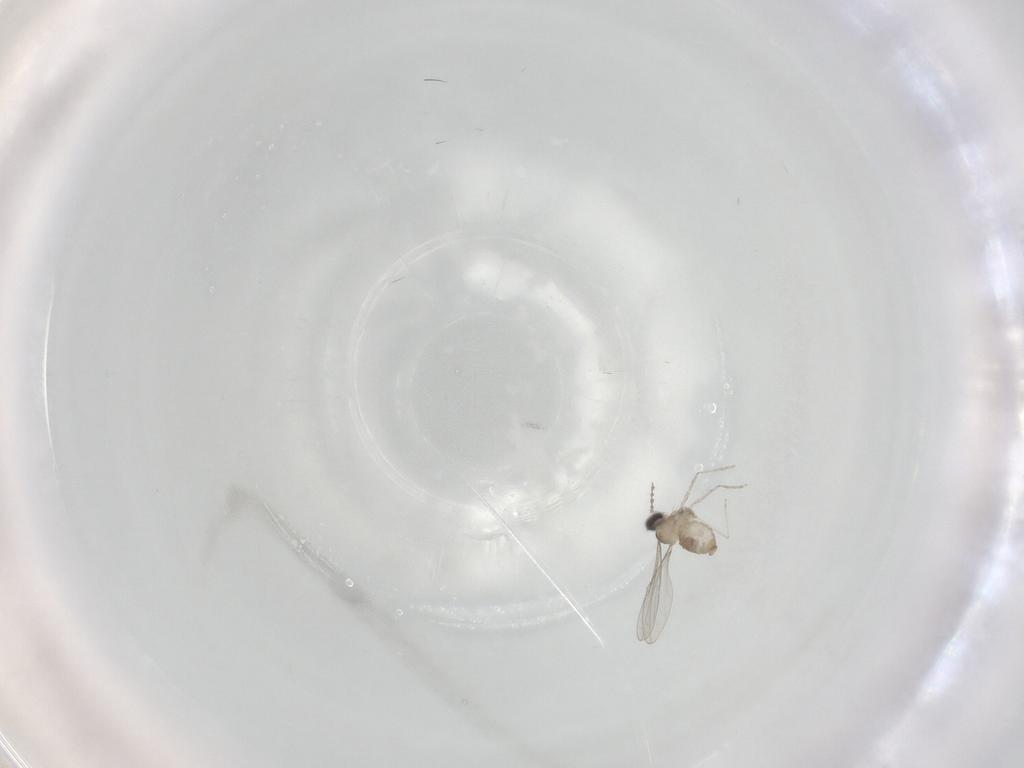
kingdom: Animalia
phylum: Arthropoda
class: Insecta
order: Diptera
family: Cecidomyiidae
